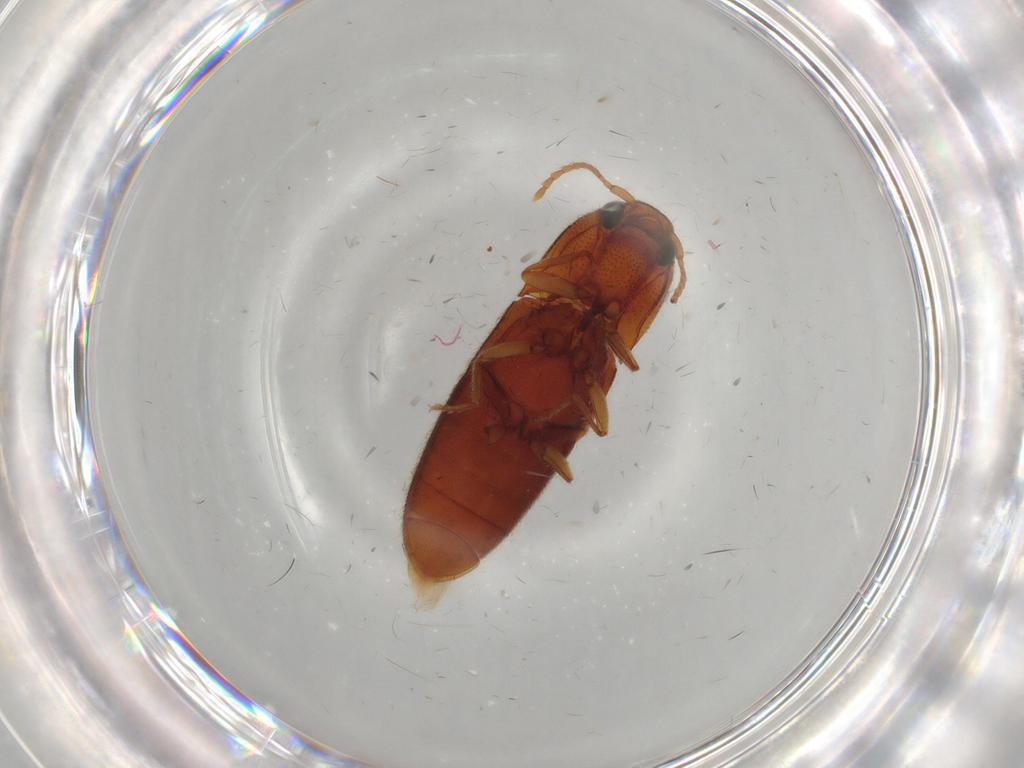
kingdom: Animalia
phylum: Arthropoda
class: Insecta
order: Coleoptera
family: Elateridae
